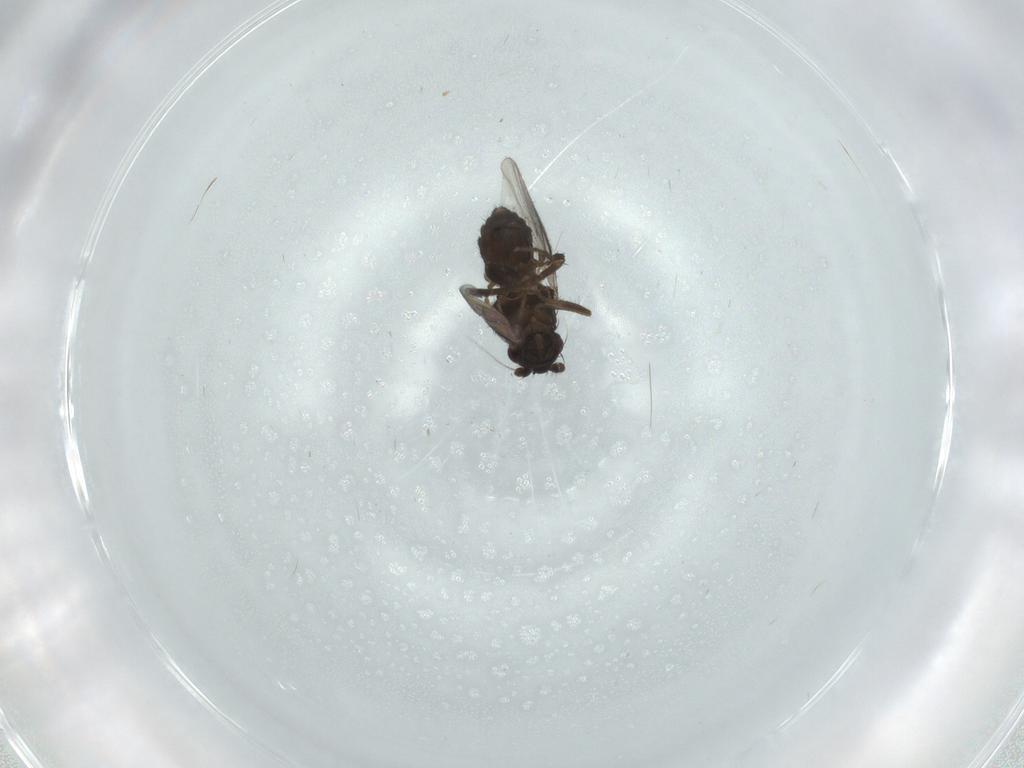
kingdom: Animalia
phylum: Arthropoda
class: Insecta
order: Diptera
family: Sphaeroceridae
